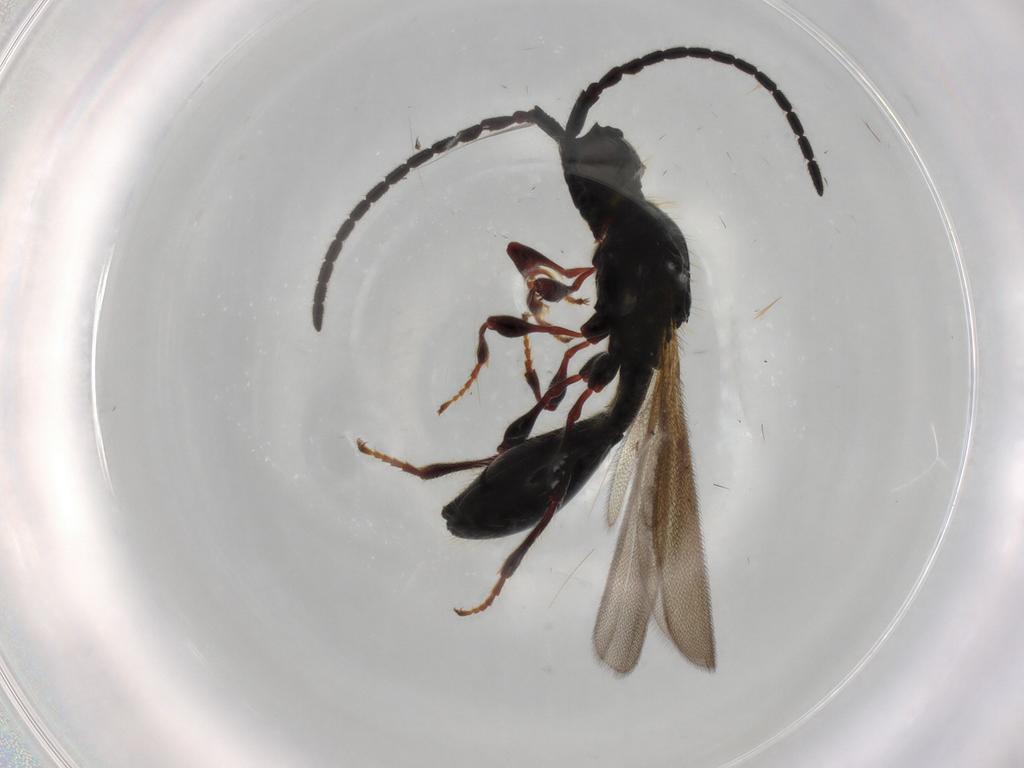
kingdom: Animalia
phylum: Arthropoda
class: Insecta
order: Hymenoptera
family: Diapriidae
